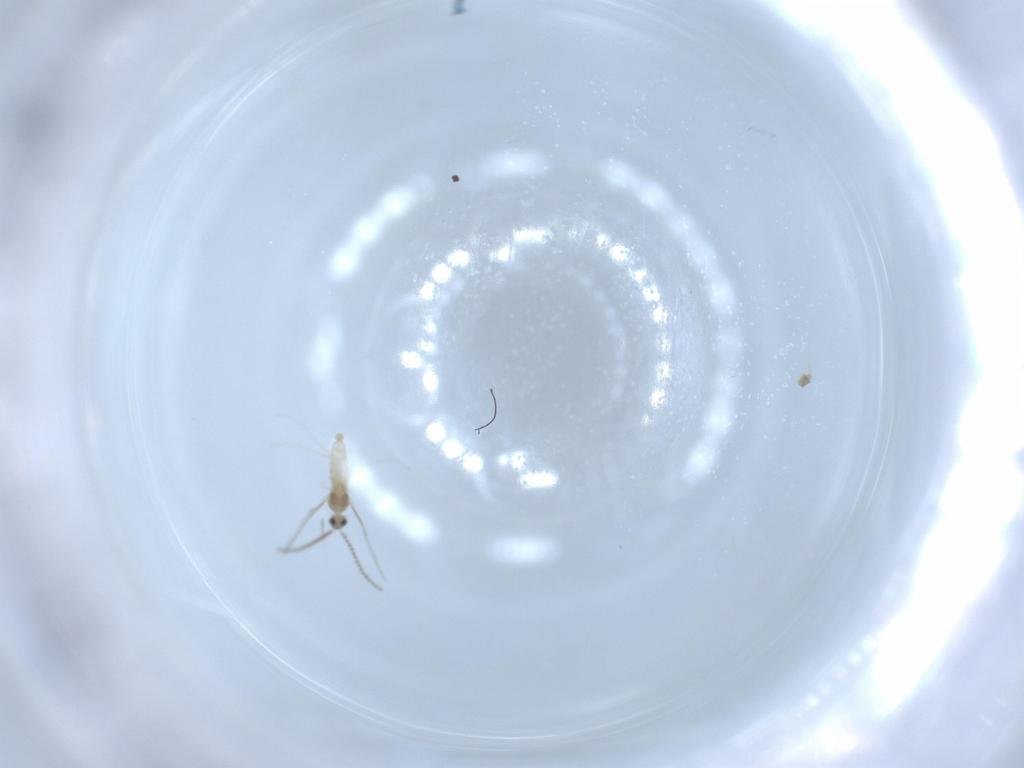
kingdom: Animalia
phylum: Arthropoda
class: Insecta
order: Diptera
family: Cecidomyiidae
